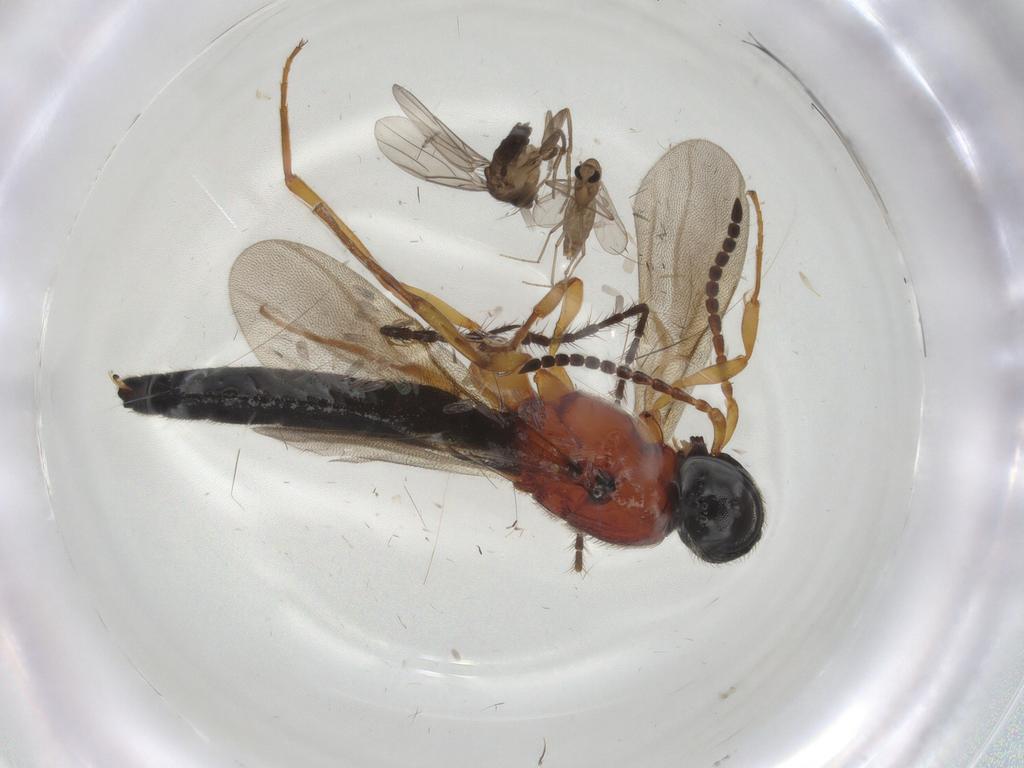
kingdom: Animalia
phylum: Arthropoda
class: Insecta
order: Diptera
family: Chironomidae
